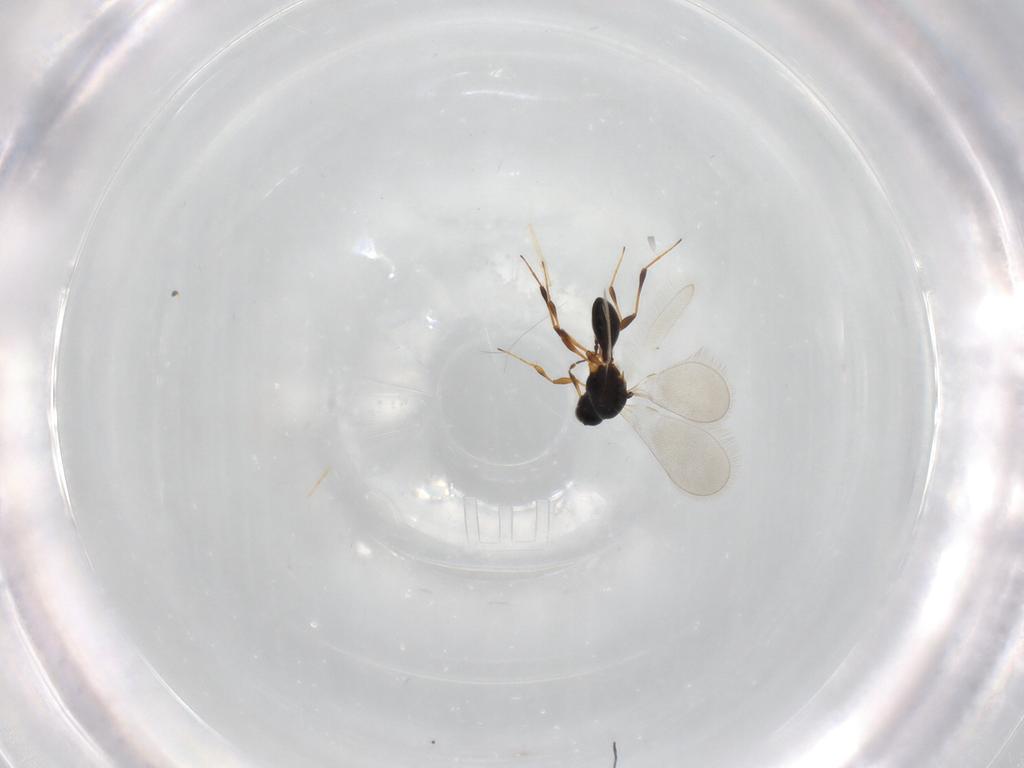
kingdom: Animalia
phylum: Arthropoda
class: Insecta
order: Hymenoptera
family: Platygastridae
